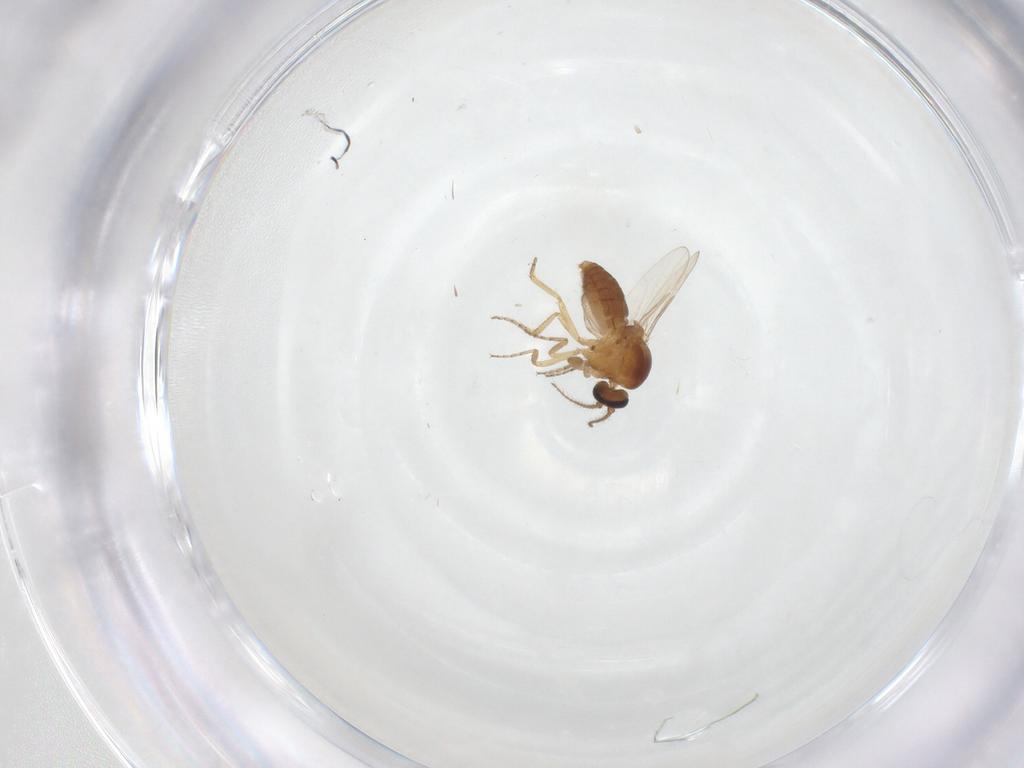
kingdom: Animalia
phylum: Arthropoda
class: Insecta
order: Diptera
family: Ceratopogonidae
